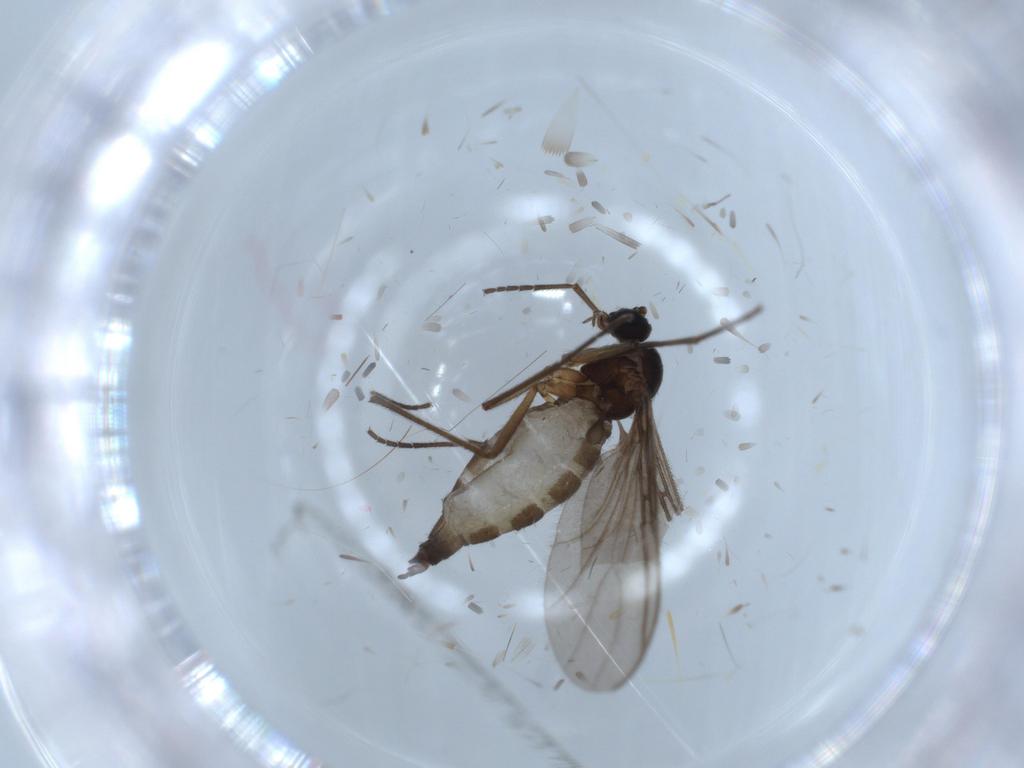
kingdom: Animalia
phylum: Arthropoda
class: Insecta
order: Diptera
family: Sciaridae
